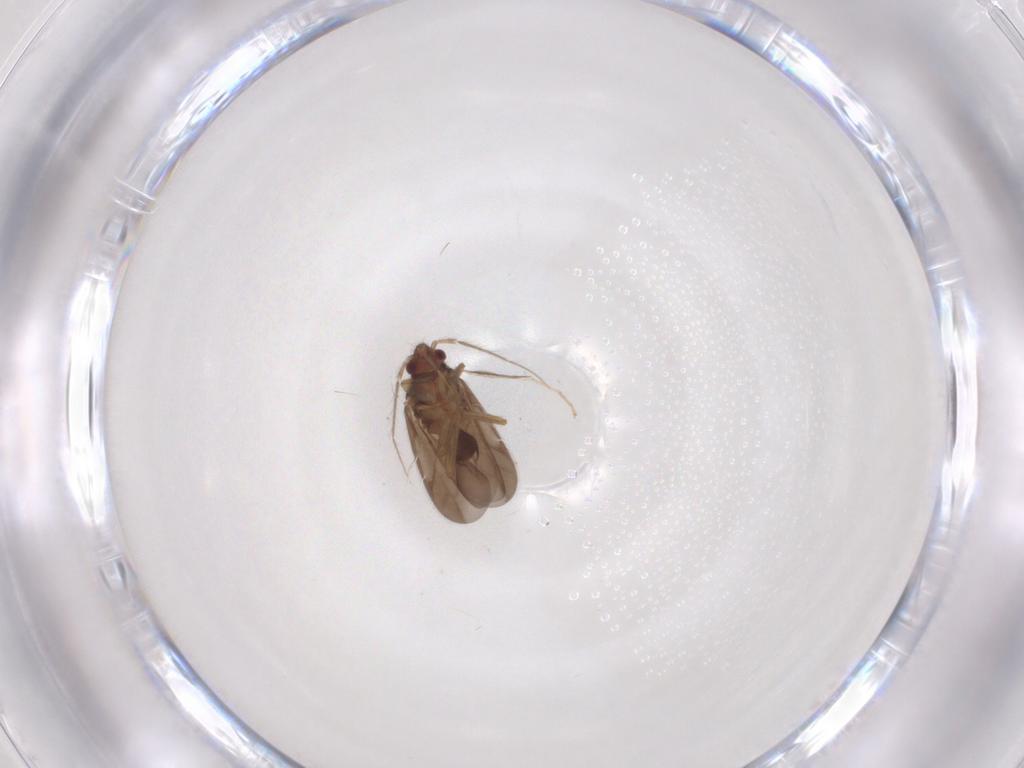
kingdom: Animalia
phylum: Arthropoda
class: Insecta
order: Hemiptera
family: Ceratocombidae
